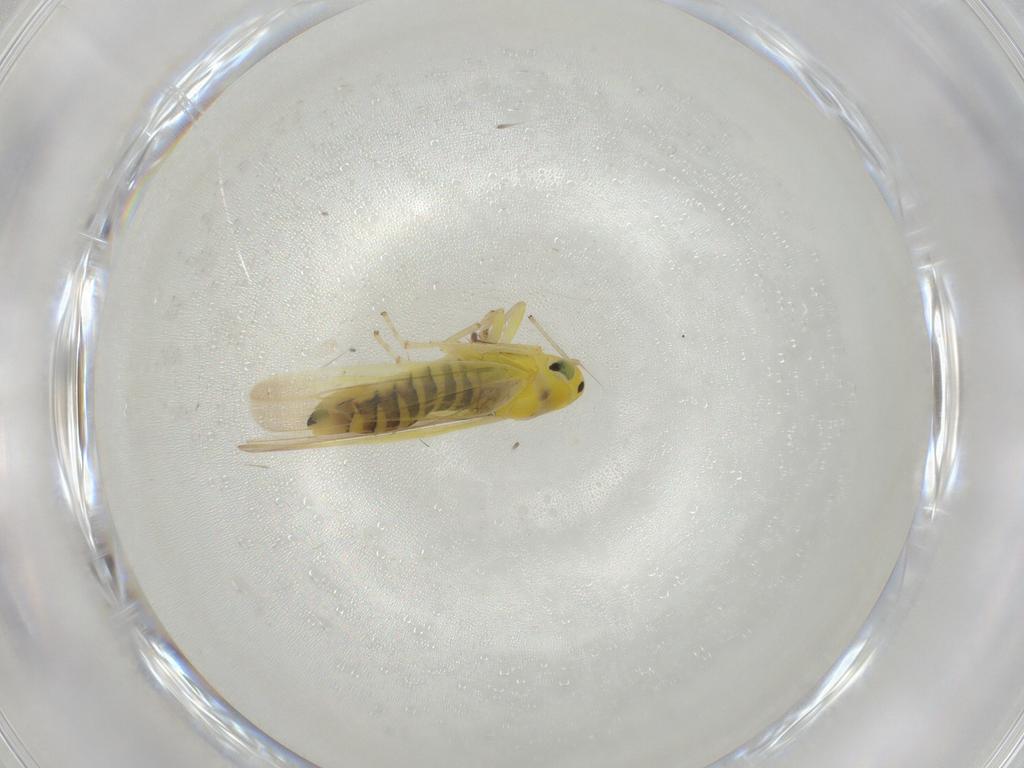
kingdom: Animalia
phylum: Arthropoda
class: Insecta
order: Hemiptera
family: Cicadellidae
